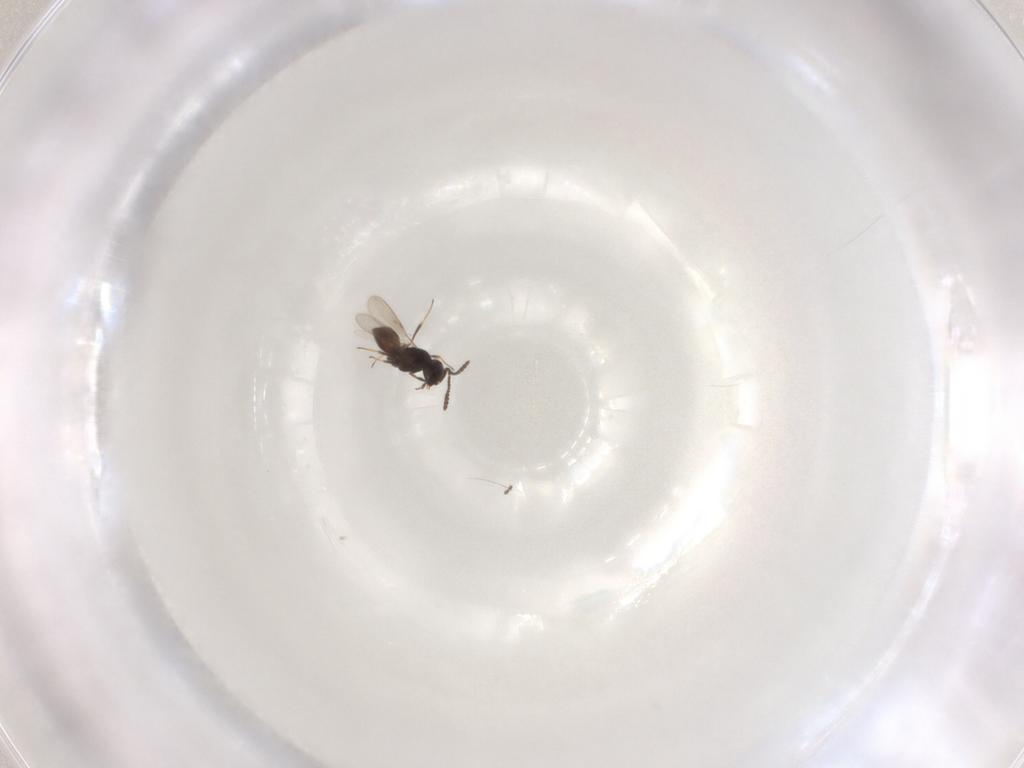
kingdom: Animalia
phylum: Arthropoda
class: Insecta
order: Hymenoptera
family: Scelionidae
